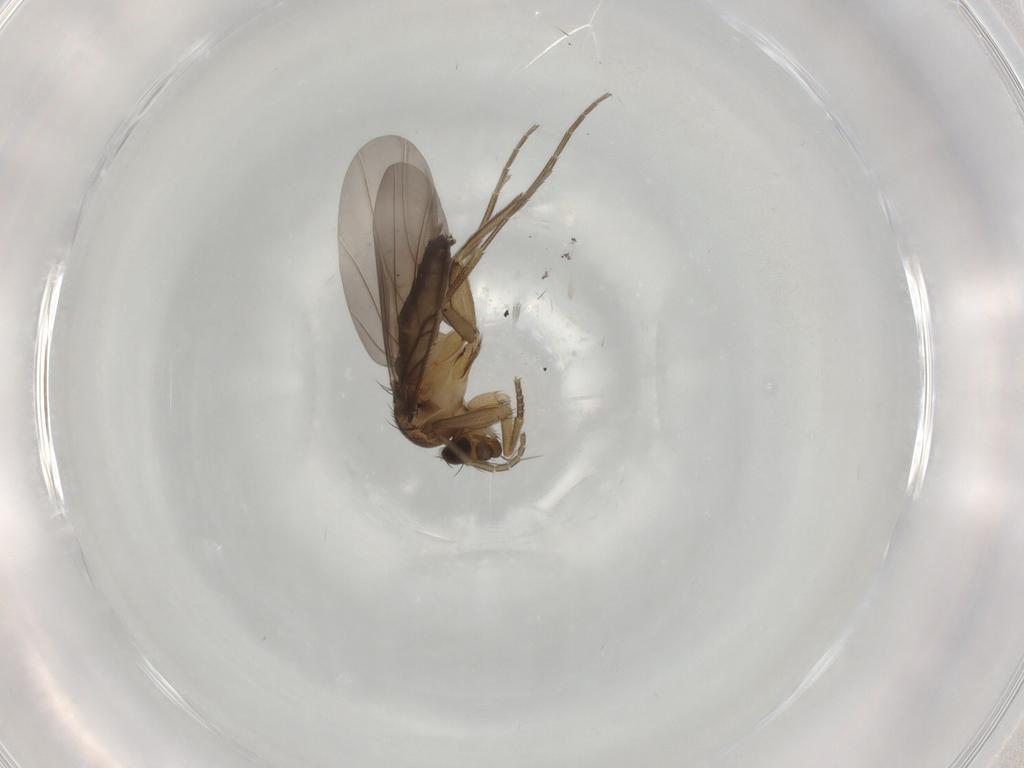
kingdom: Animalia
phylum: Arthropoda
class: Insecta
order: Diptera
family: Phoridae
